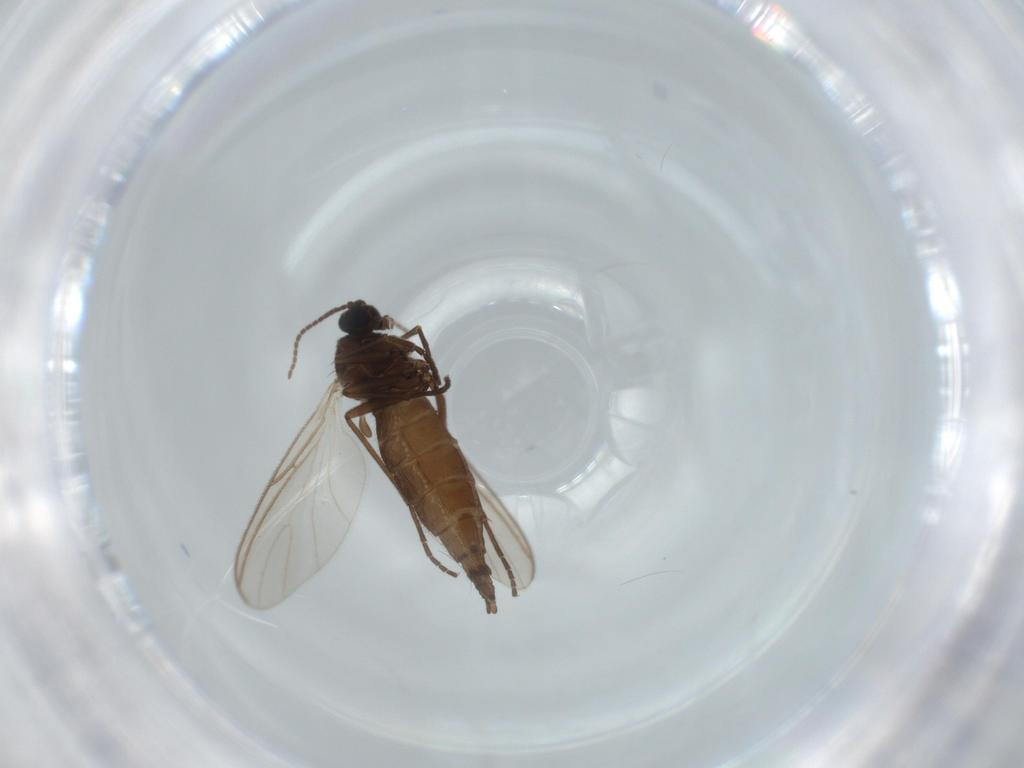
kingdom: Animalia
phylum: Arthropoda
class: Insecta
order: Diptera
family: Sciaridae
